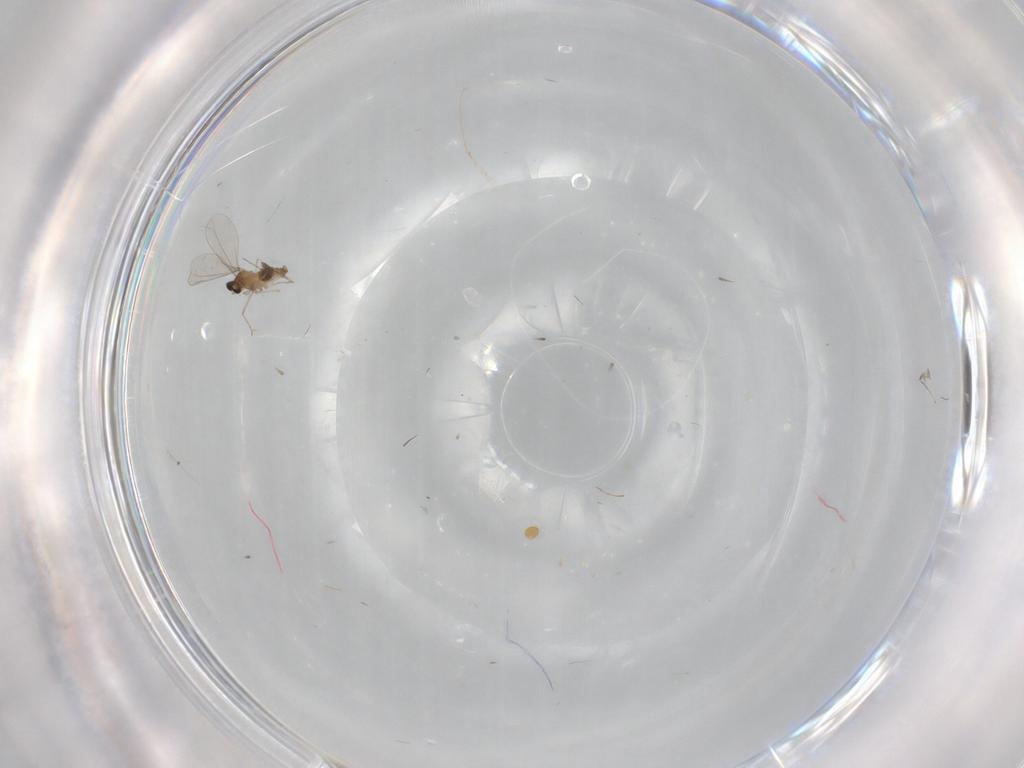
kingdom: Animalia
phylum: Arthropoda
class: Insecta
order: Diptera
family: Cecidomyiidae
